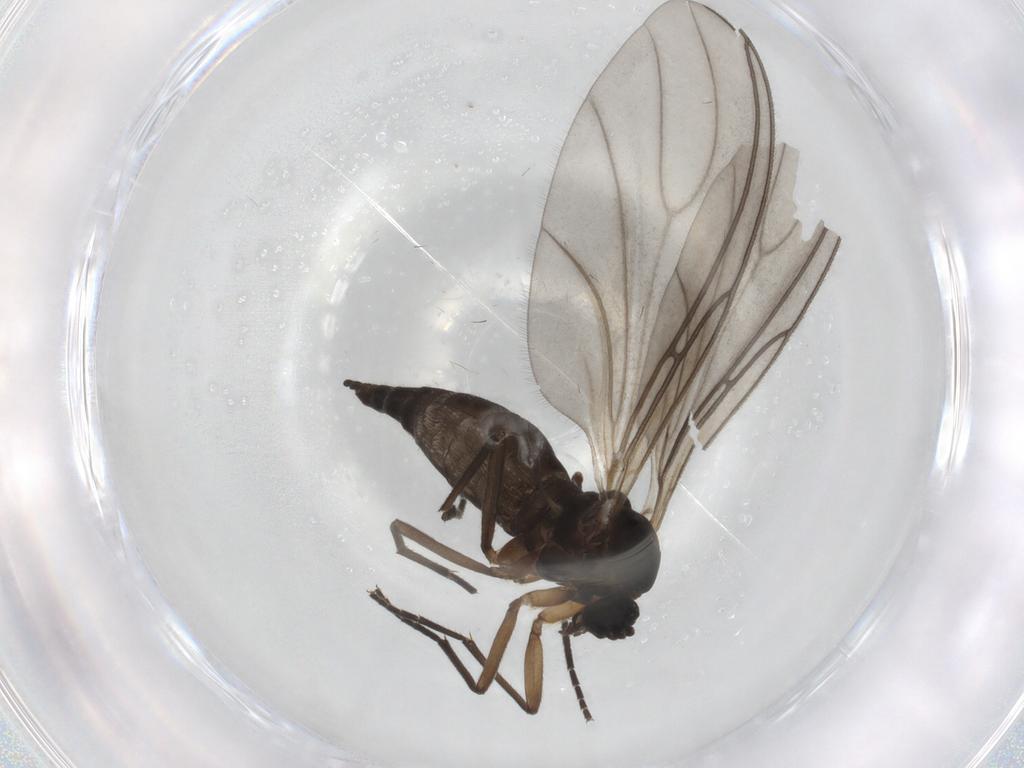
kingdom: Animalia
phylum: Arthropoda
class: Insecta
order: Diptera
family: Sciaridae
